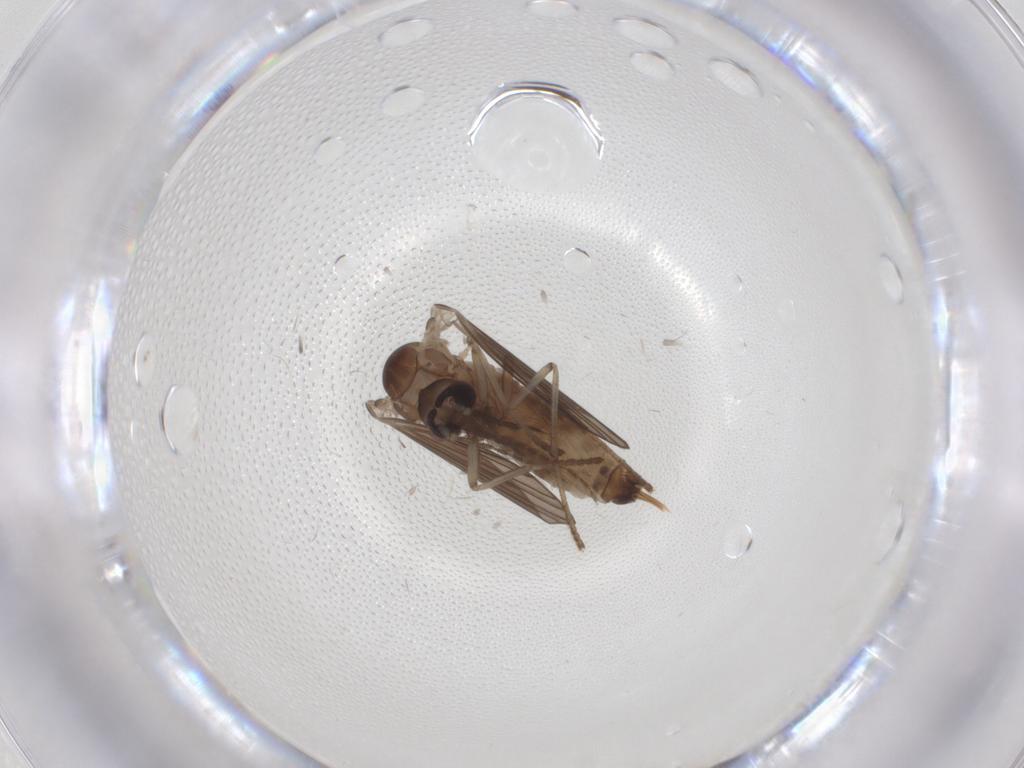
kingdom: Animalia
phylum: Arthropoda
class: Insecta
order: Diptera
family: Psychodidae
